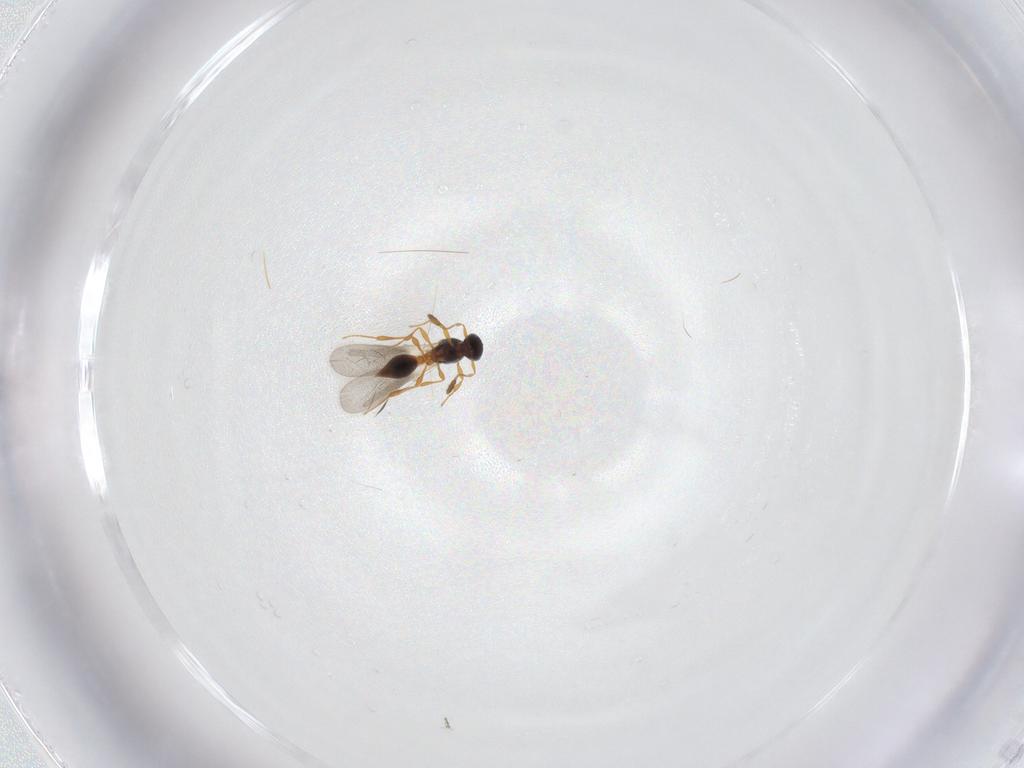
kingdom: Animalia
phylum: Arthropoda
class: Insecta
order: Hymenoptera
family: Platygastridae
